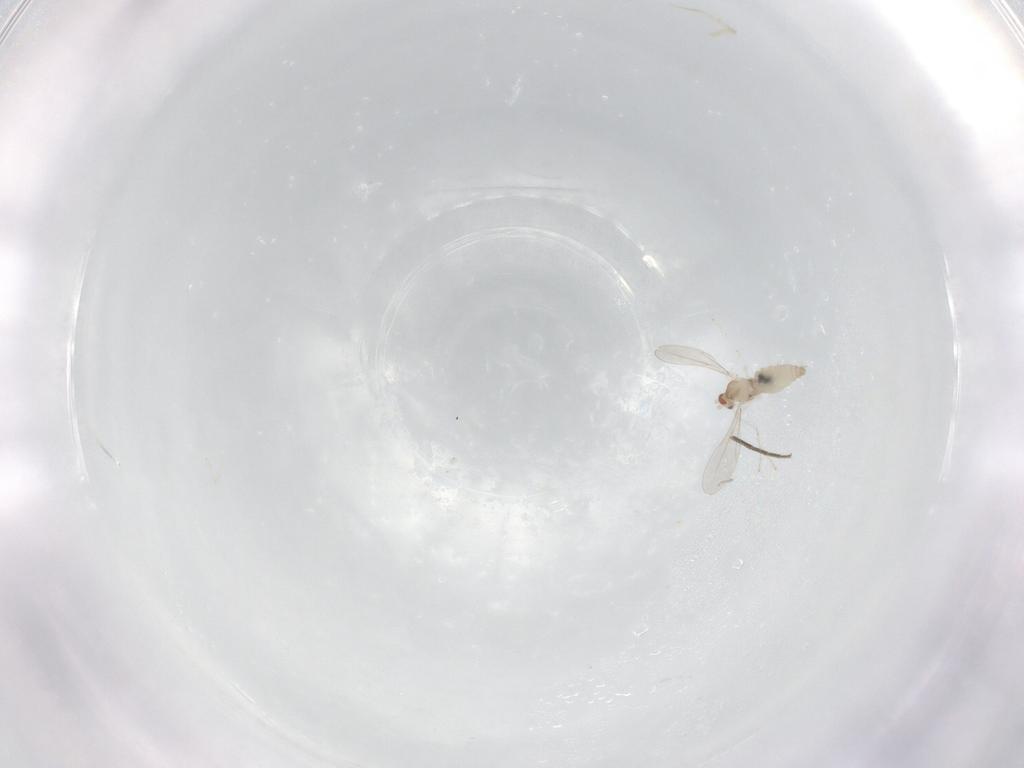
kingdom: Animalia
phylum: Arthropoda
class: Insecta
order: Diptera
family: Cecidomyiidae
